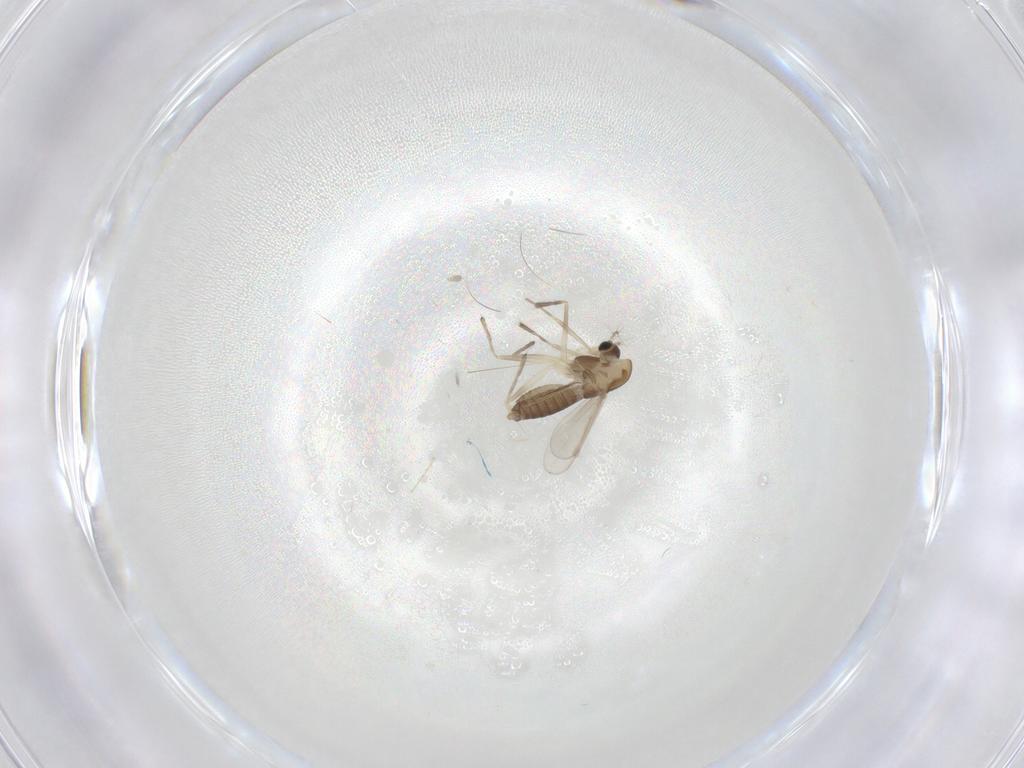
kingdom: Animalia
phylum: Arthropoda
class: Insecta
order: Diptera
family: Chironomidae
